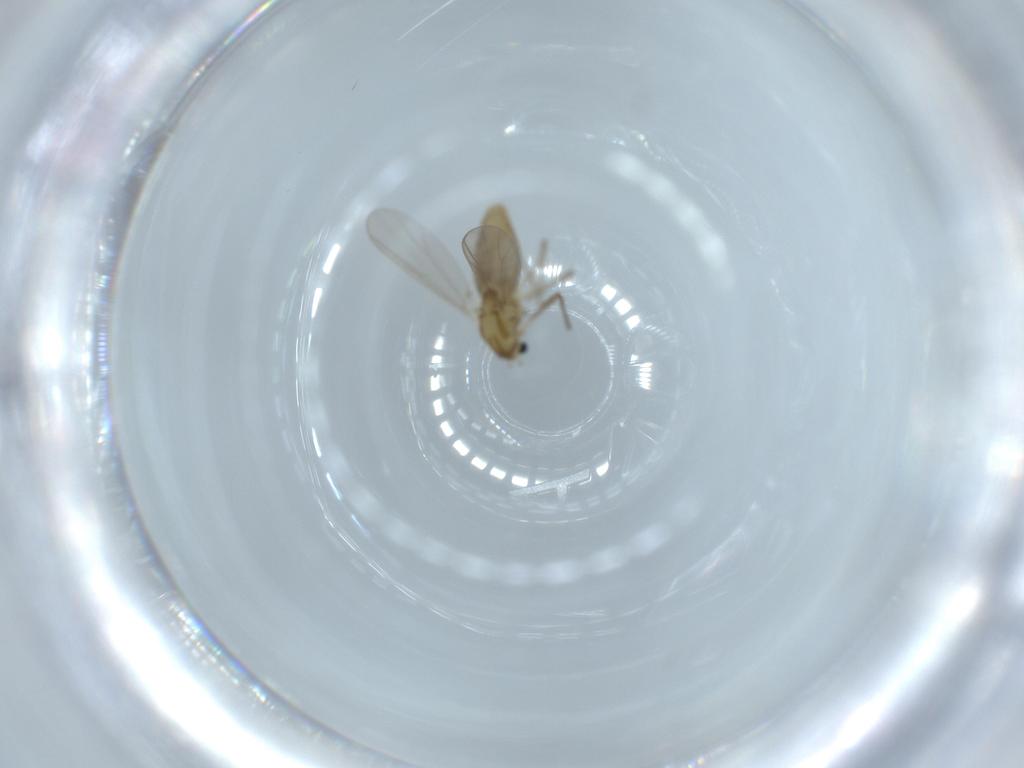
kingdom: Animalia
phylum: Arthropoda
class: Insecta
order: Diptera
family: Chironomidae
